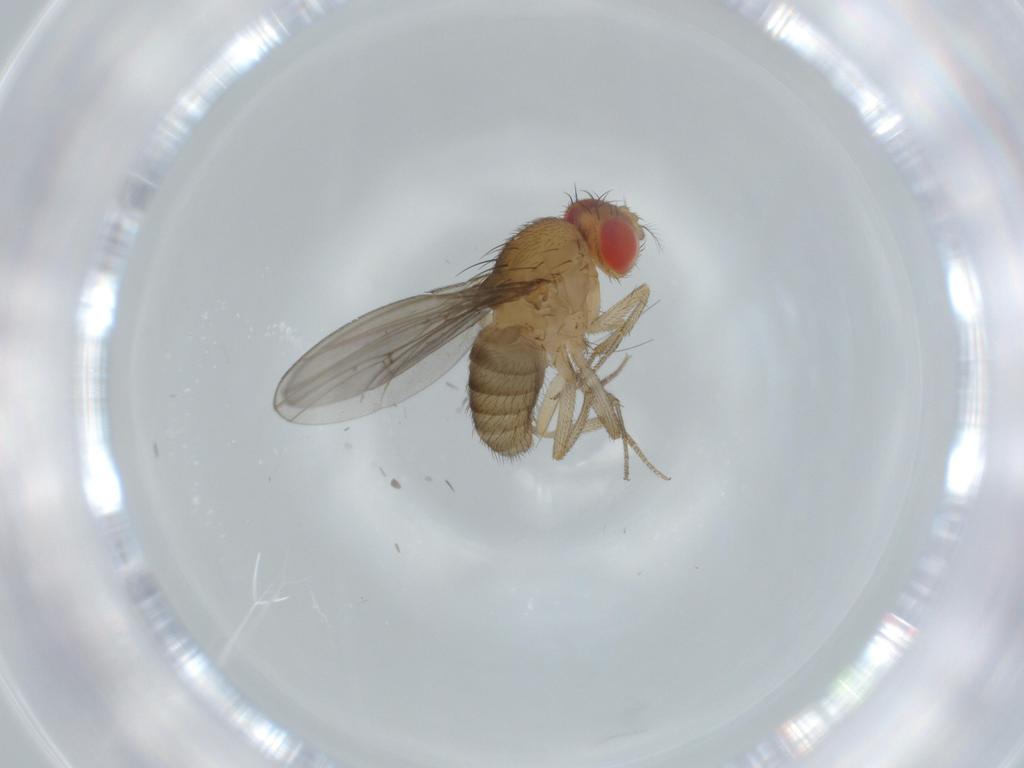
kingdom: Animalia
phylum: Arthropoda
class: Insecta
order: Diptera
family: Drosophilidae
